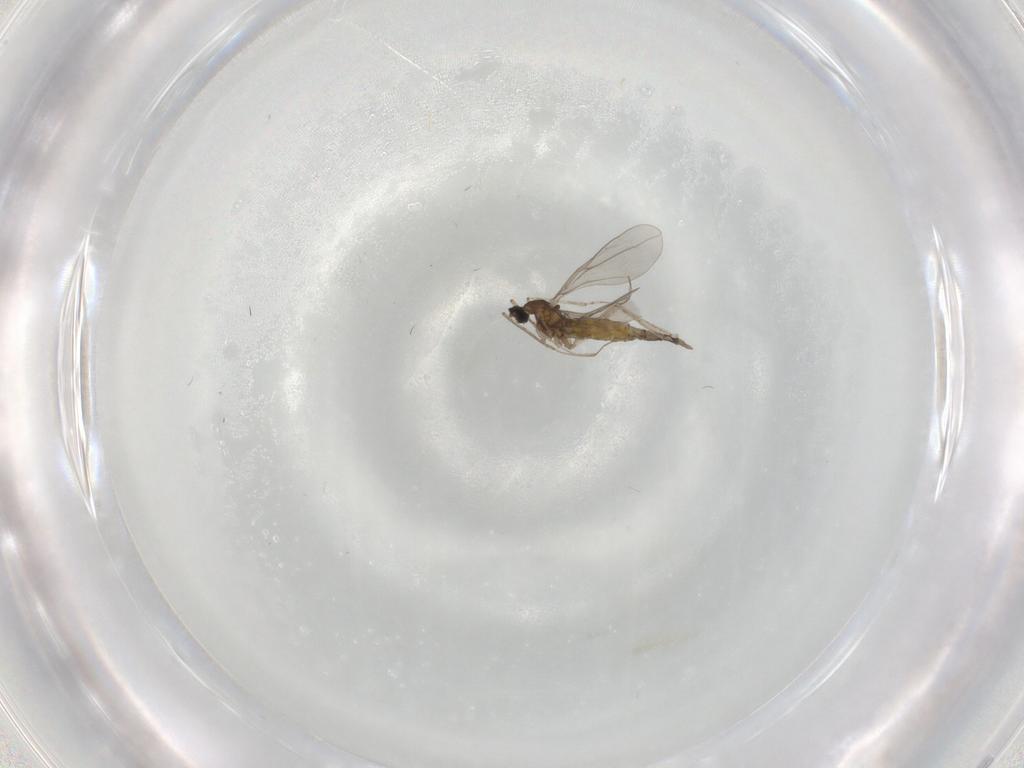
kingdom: Animalia
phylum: Arthropoda
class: Insecta
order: Diptera
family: Cecidomyiidae
